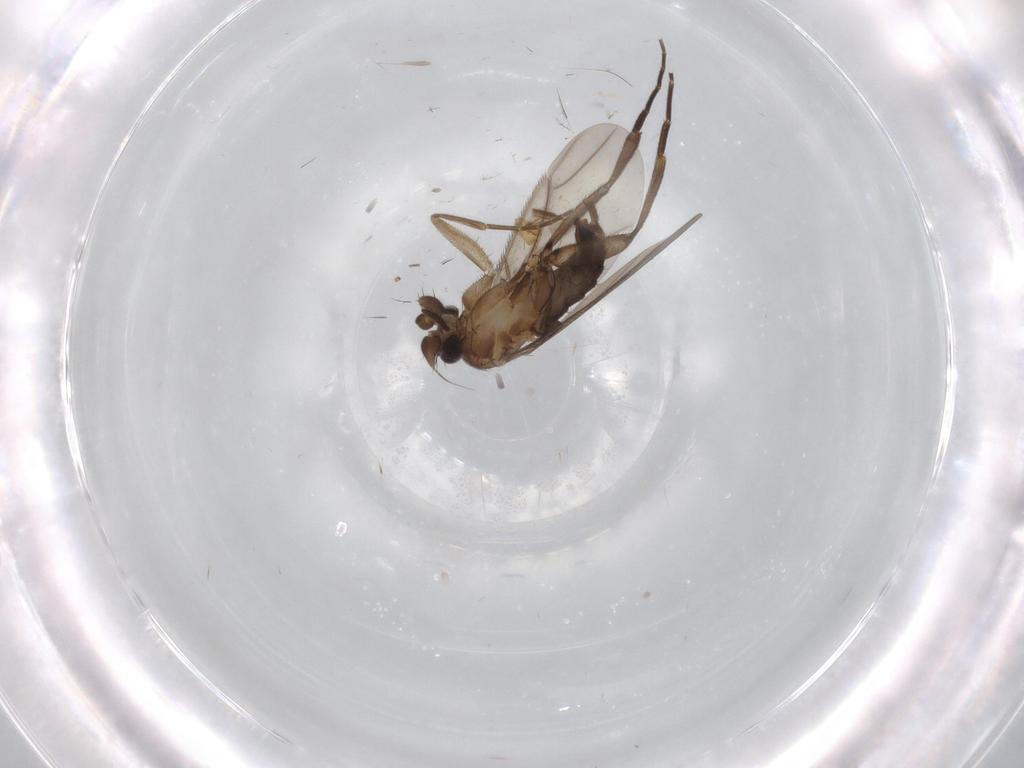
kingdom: Animalia
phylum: Arthropoda
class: Insecta
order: Diptera
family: Phoridae
